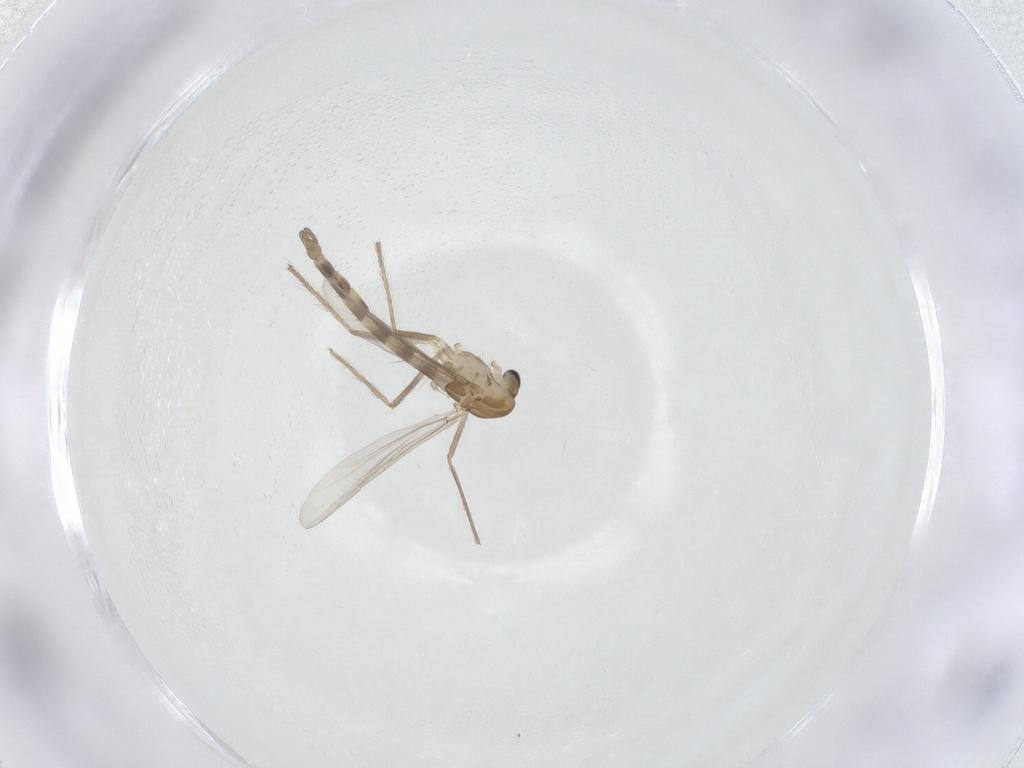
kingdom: Animalia
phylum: Arthropoda
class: Insecta
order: Diptera
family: Chironomidae
